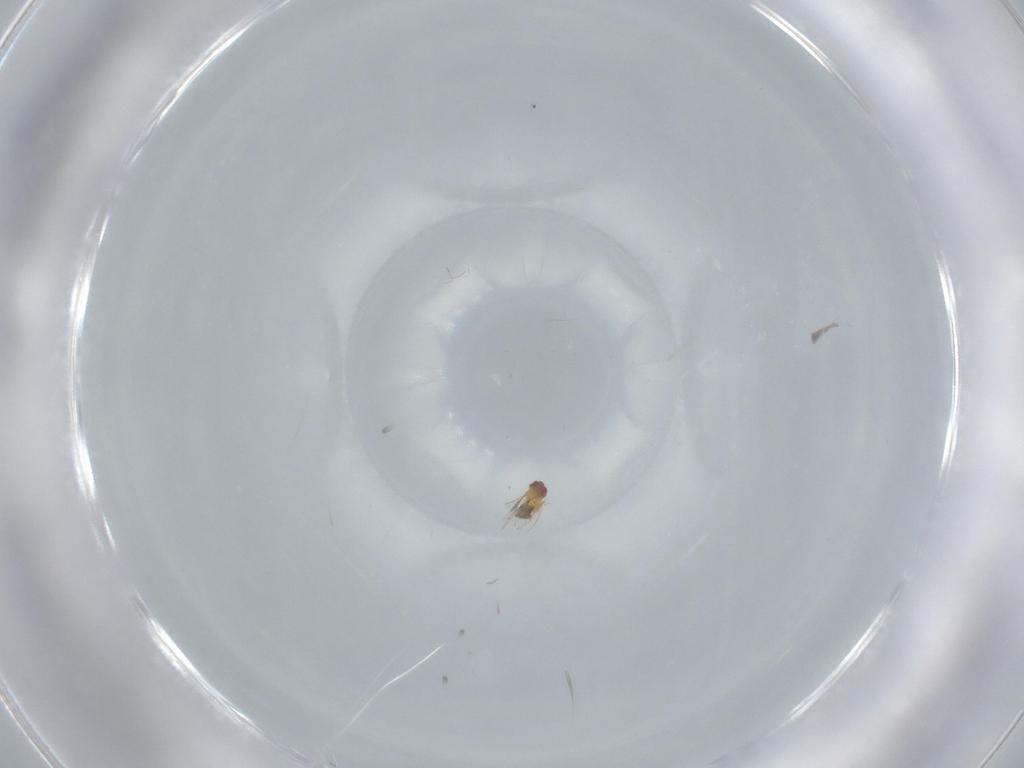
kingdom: Animalia
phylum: Arthropoda
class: Insecta
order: Hymenoptera
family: Trichogrammatidae
